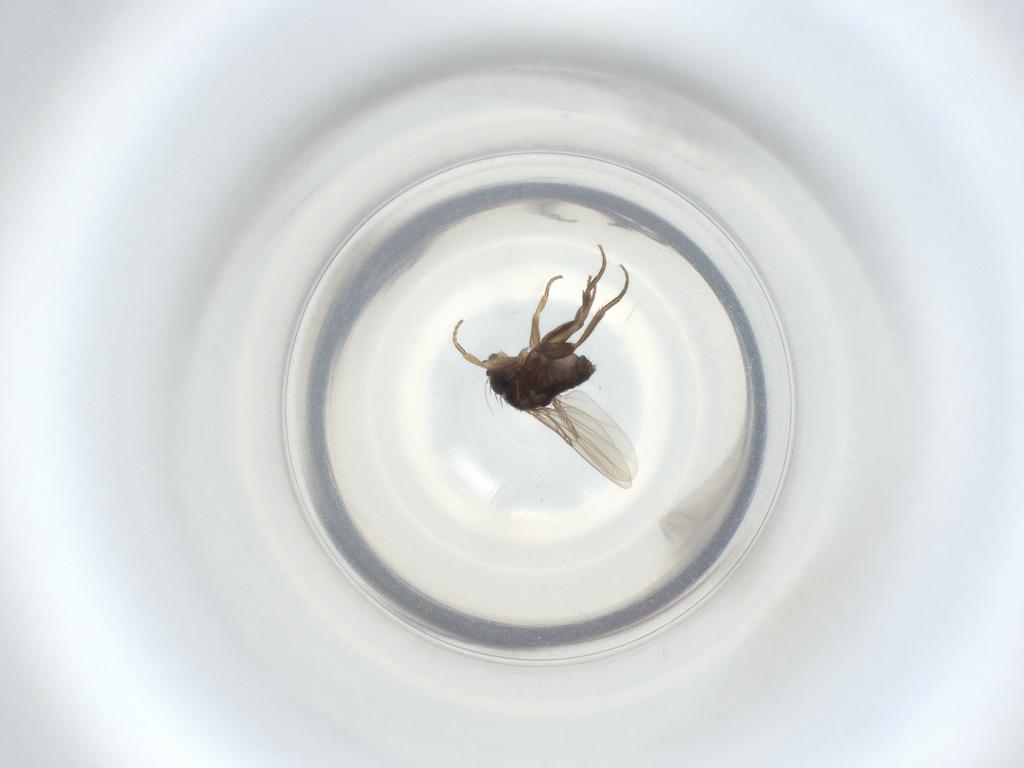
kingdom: Animalia
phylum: Arthropoda
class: Insecta
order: Diptera
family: Phoridae
